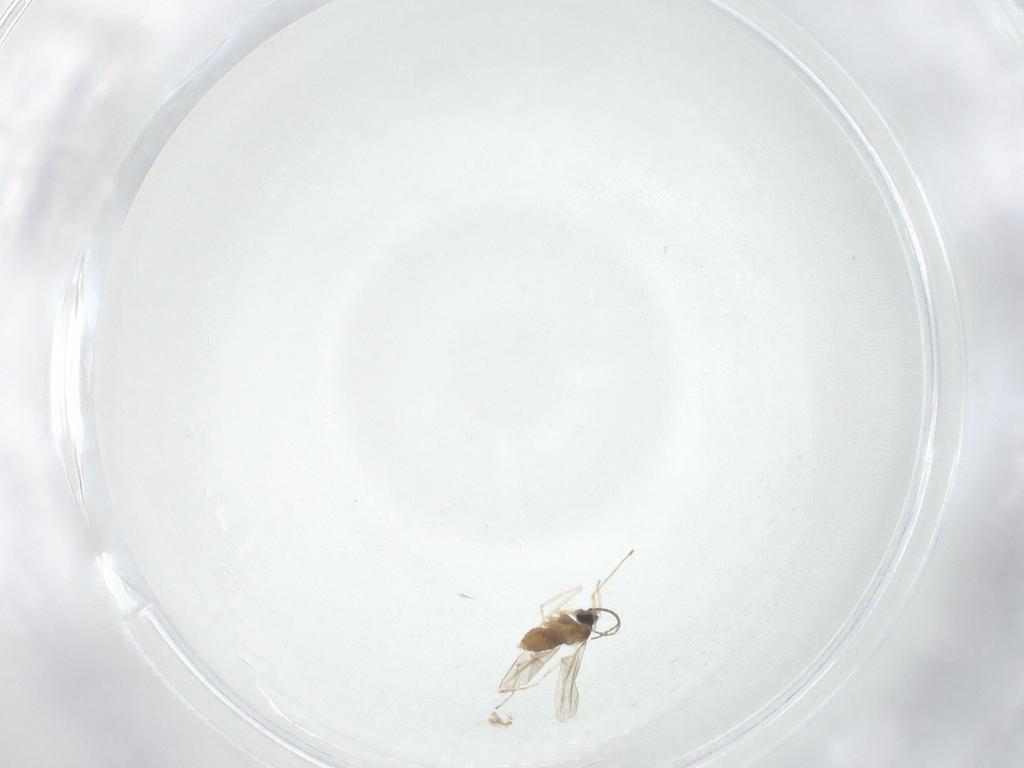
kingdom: Animalia
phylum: Arthropoda
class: Insecta
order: Diptera
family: Cecidomyiidae
